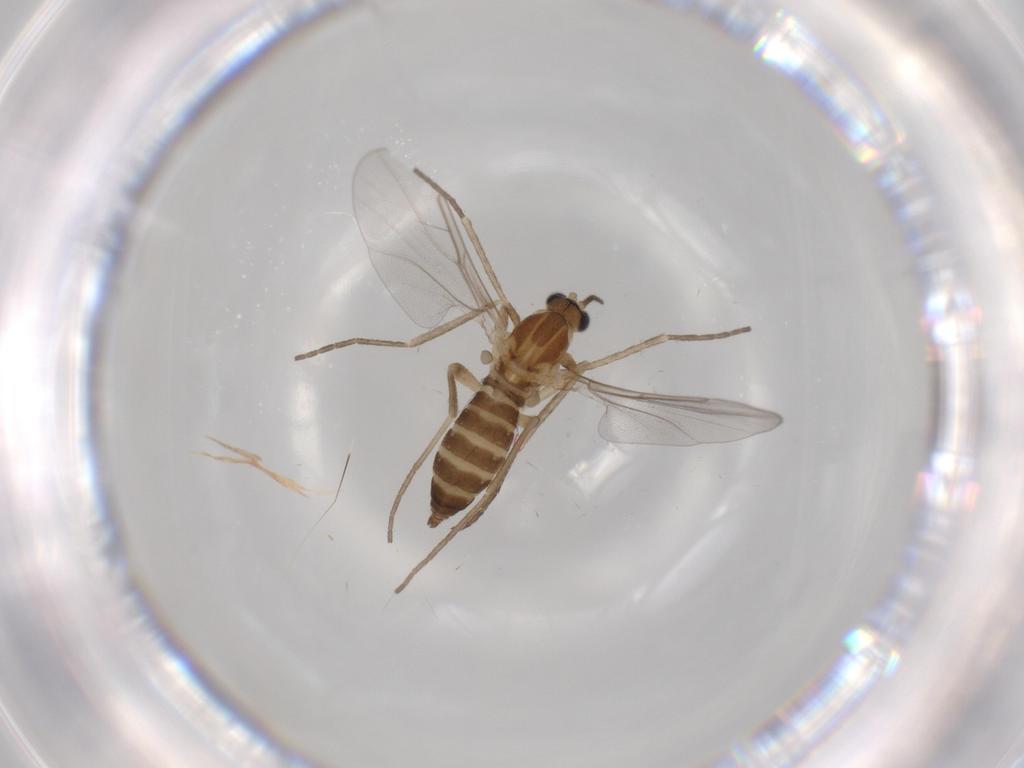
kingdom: Animalia
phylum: Arthropoda
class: Insecta
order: Diptera
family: Cecidomyiidae
